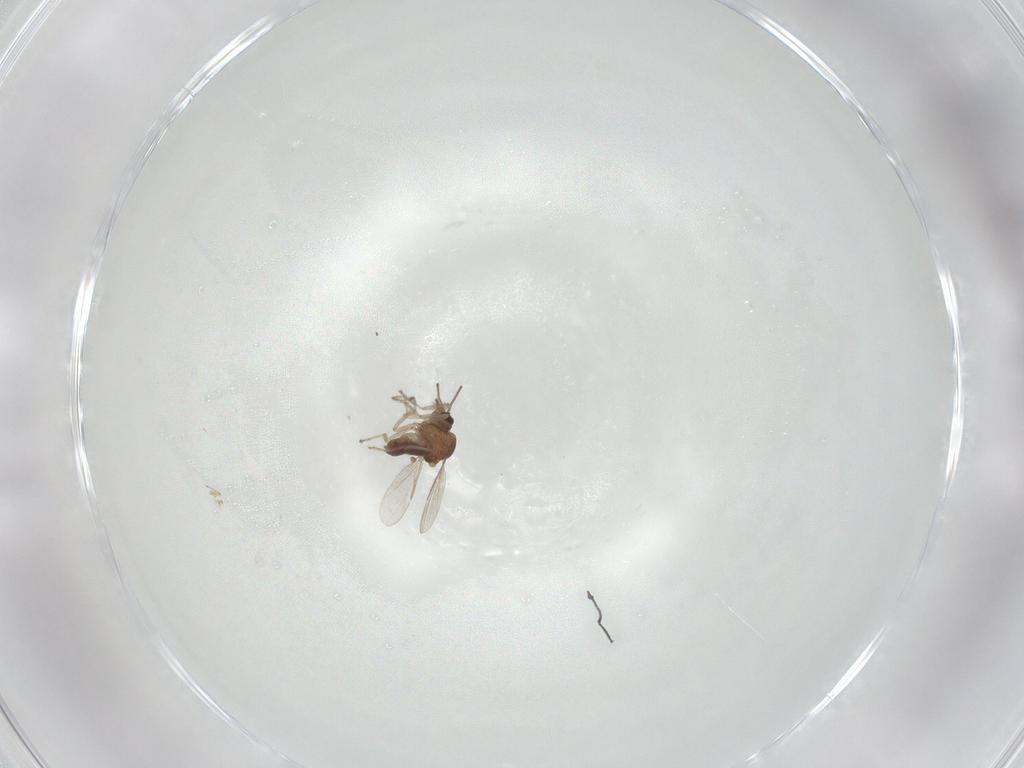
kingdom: Animalia
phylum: Arthropoda
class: Insecta
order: Diptera
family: Ceratopogonidae
